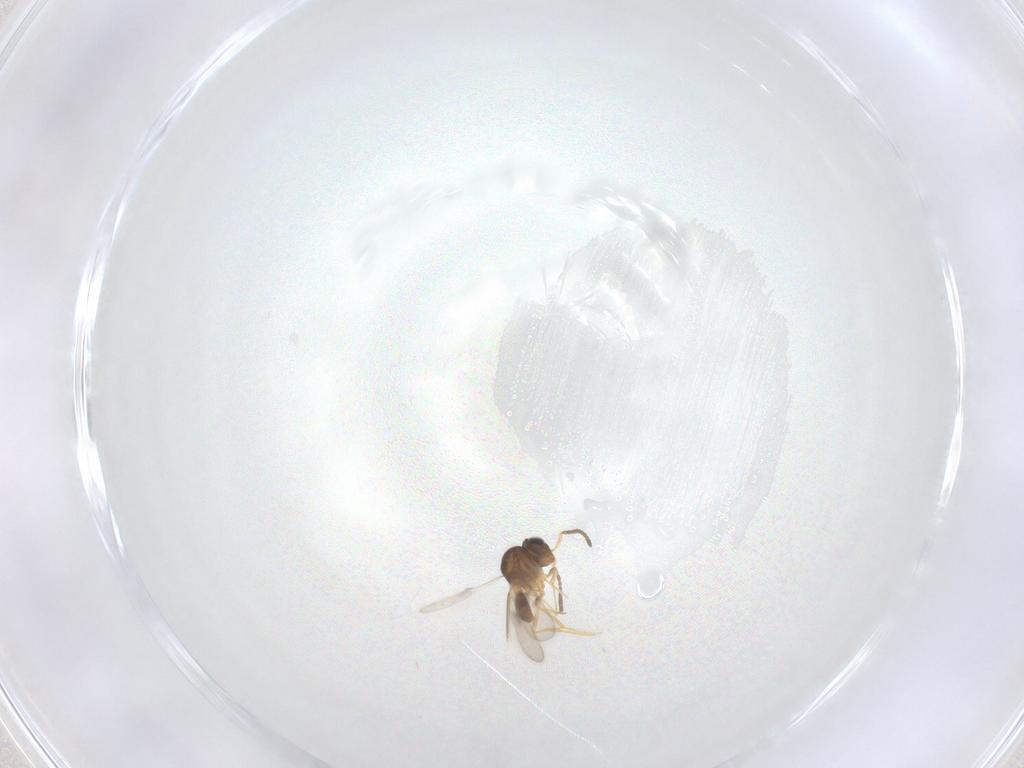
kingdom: Animalia
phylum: Arthropoda
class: Insecta
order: Hymenoptera
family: Scelionidae
